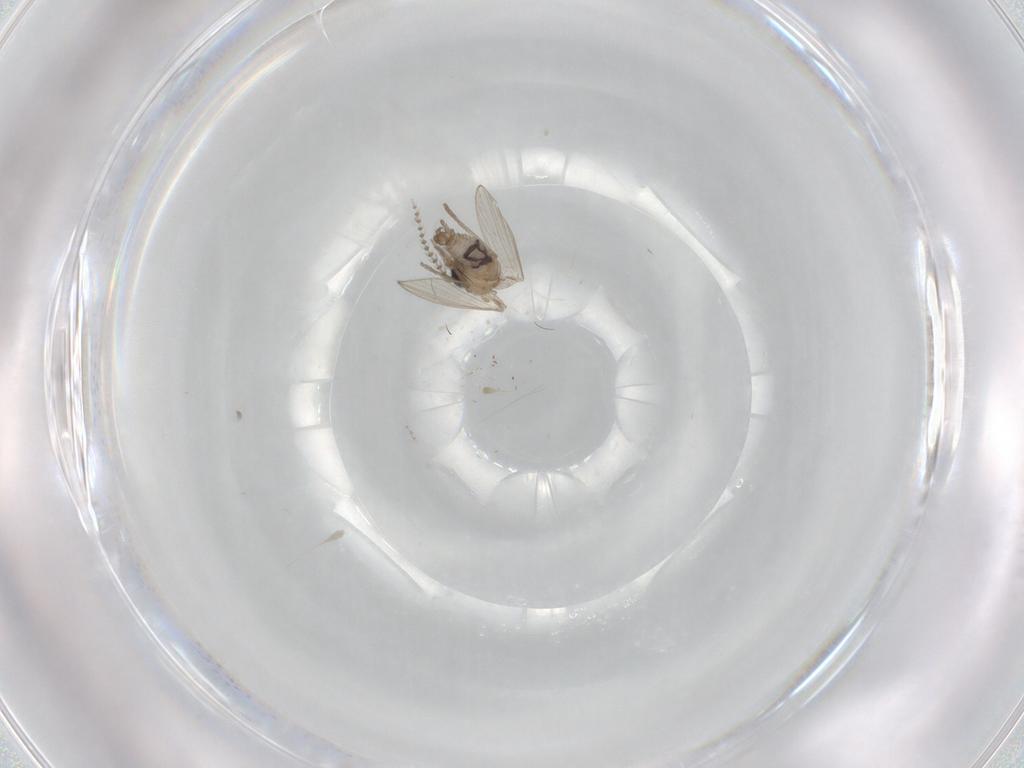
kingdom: Animalia
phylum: Arthropoda
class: Insecta
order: Diptera
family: Psychodidae
